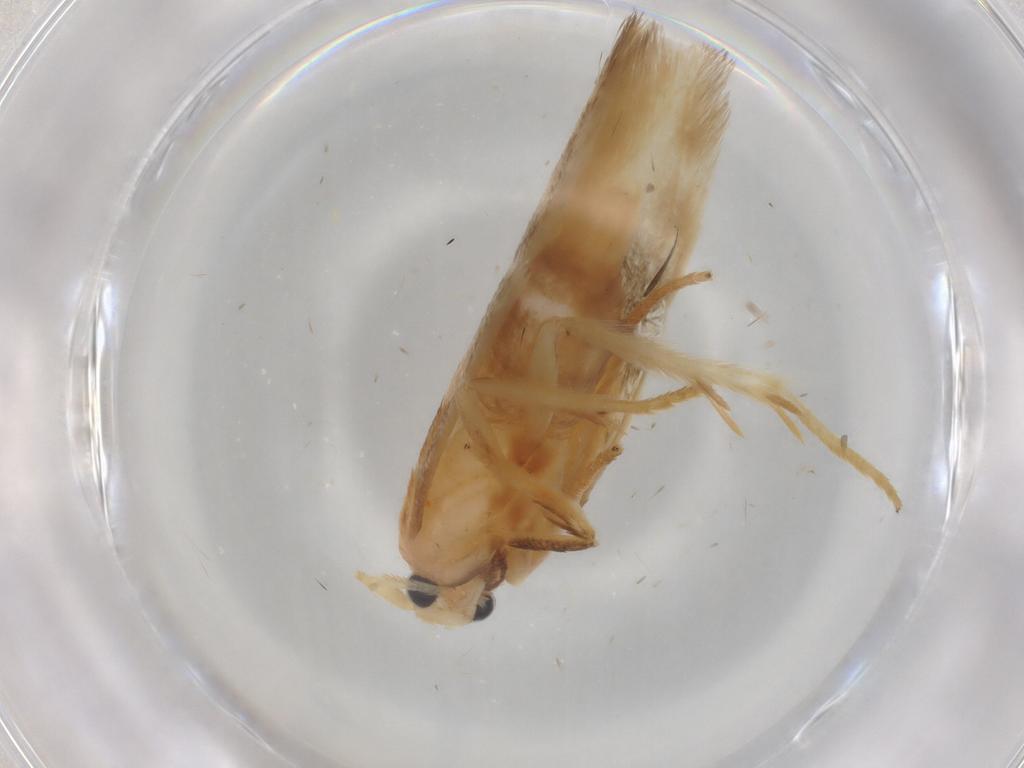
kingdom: Animalia
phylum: Arthropoda
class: Insecta
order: Lepidoptera
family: Geometridae
